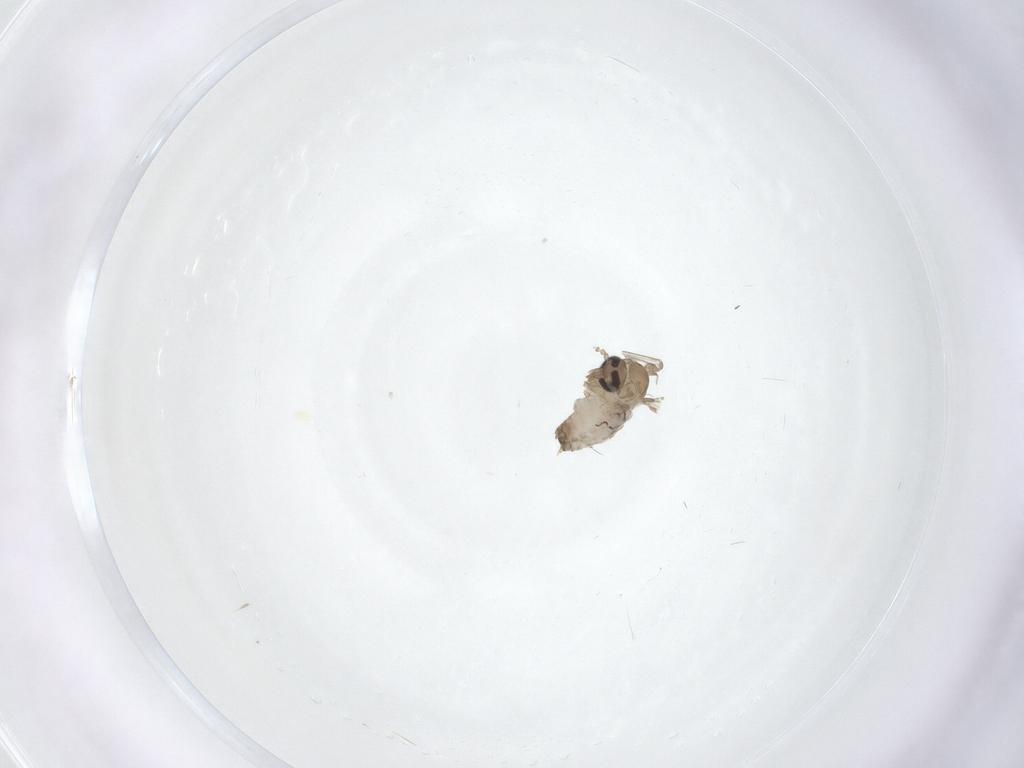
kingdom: Animalia
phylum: Arthropoda
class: Insecta
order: Diptera
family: Psychodidae
